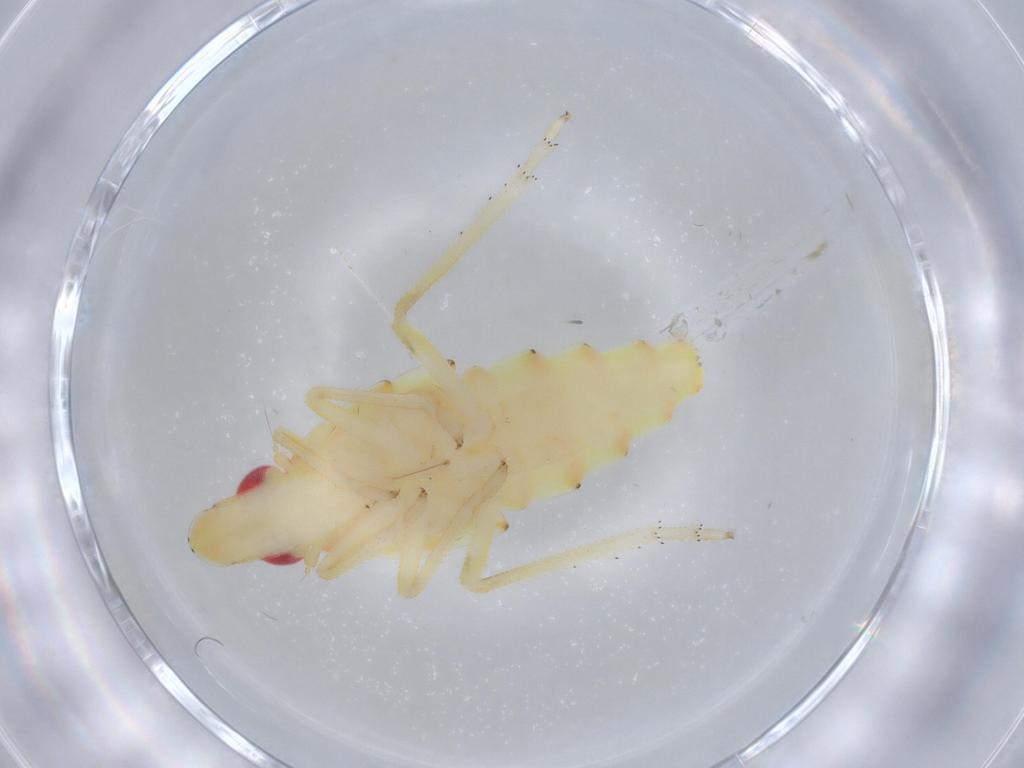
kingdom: Animalia
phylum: Arthropoda
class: Insecta
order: Hemiptera
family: Tropiduchidae
